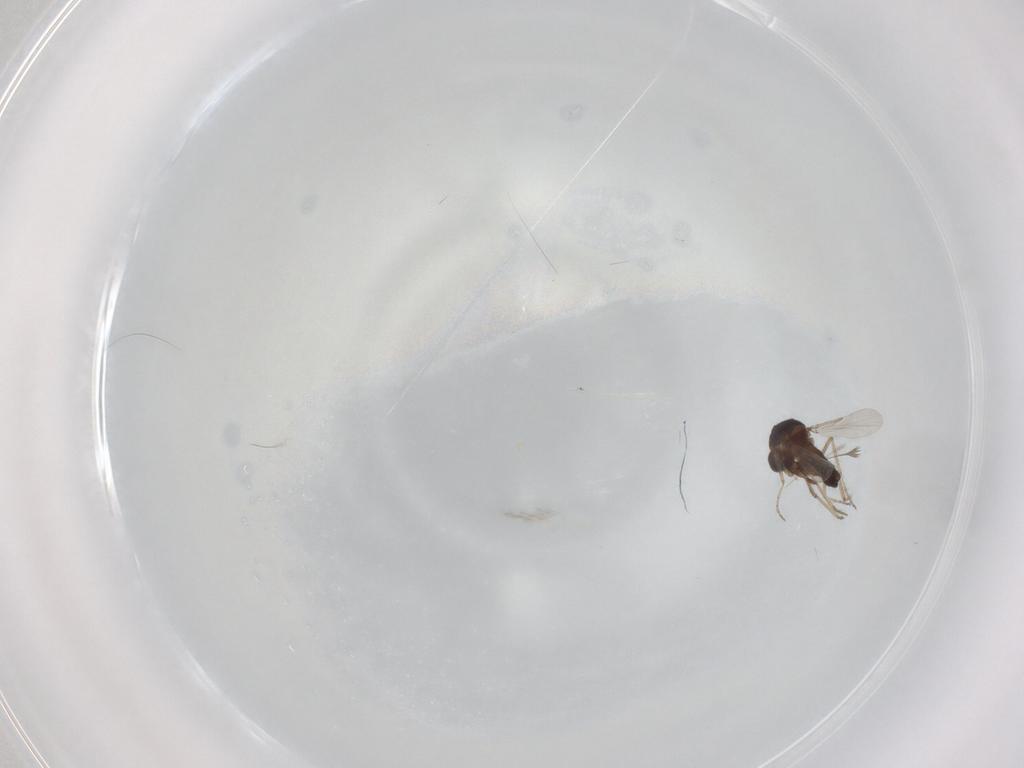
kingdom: Animalia
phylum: Arthropoda
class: Insecta
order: Diptera
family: Ceratopogonidae
